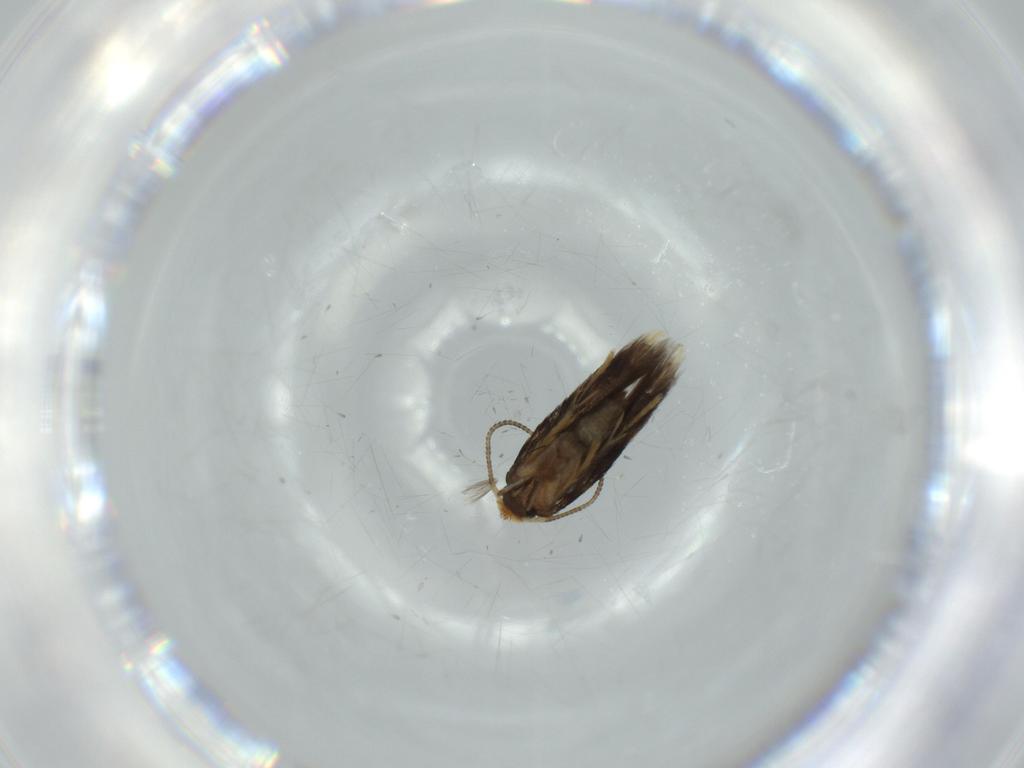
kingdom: Animalia
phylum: Arthropoda
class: Insecta
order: Lepidoptera
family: Nepticulidae
